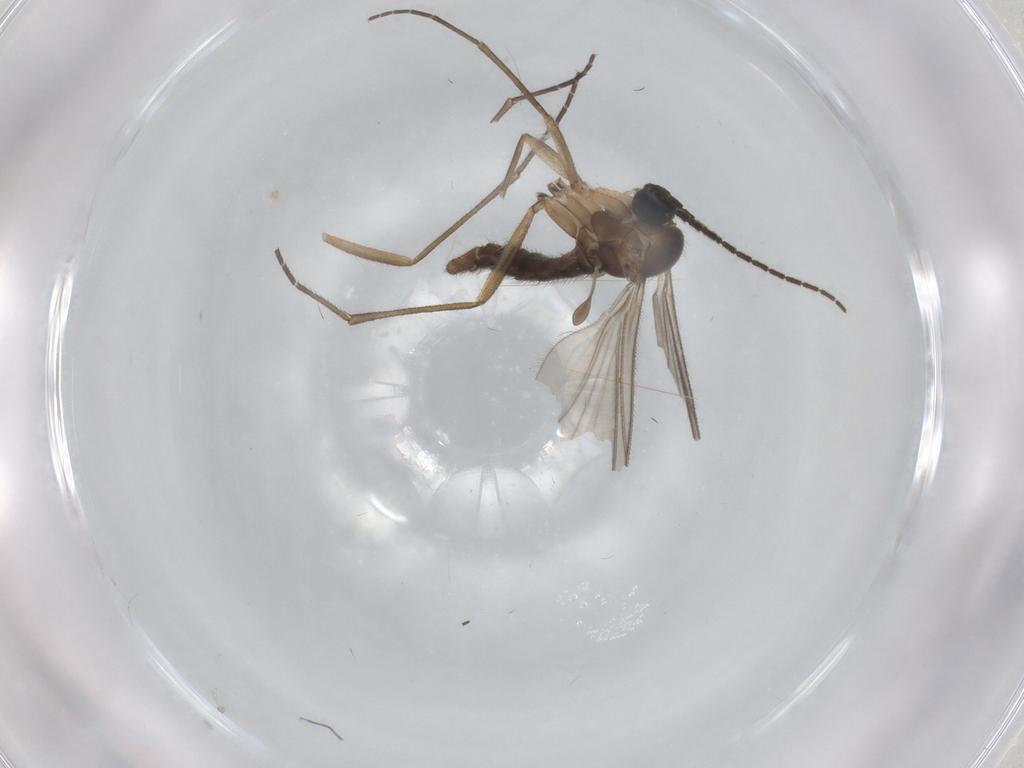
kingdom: Animalia
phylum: Arthropoda
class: Insecta
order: Diptera
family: Sciaridae
